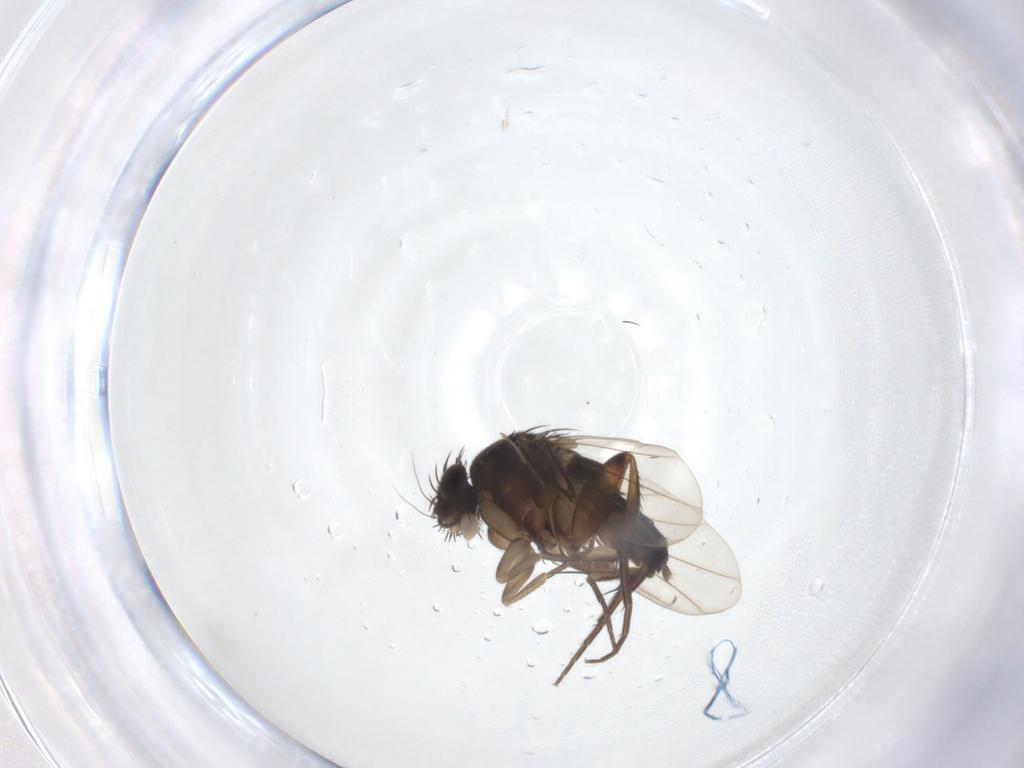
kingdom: Animalia
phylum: Arthropoda
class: Insecta
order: Diptera
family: Phoridae
